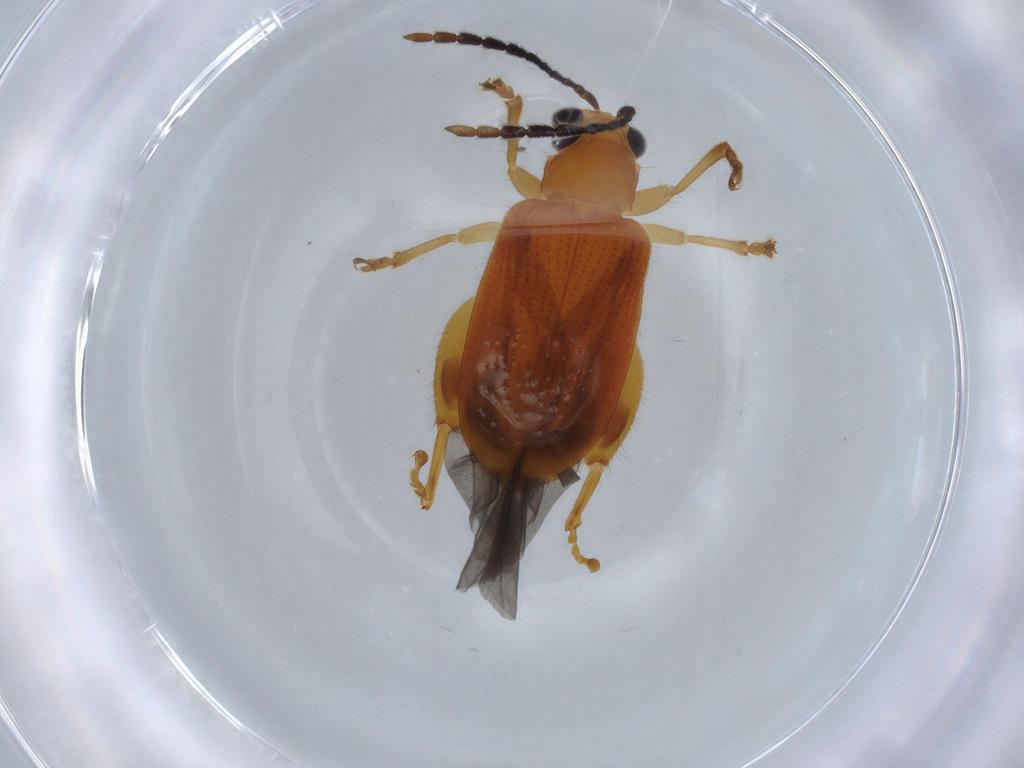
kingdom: Animalia
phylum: Arthropoda
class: Insecta
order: Coleoptera
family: Chrysomelidae
